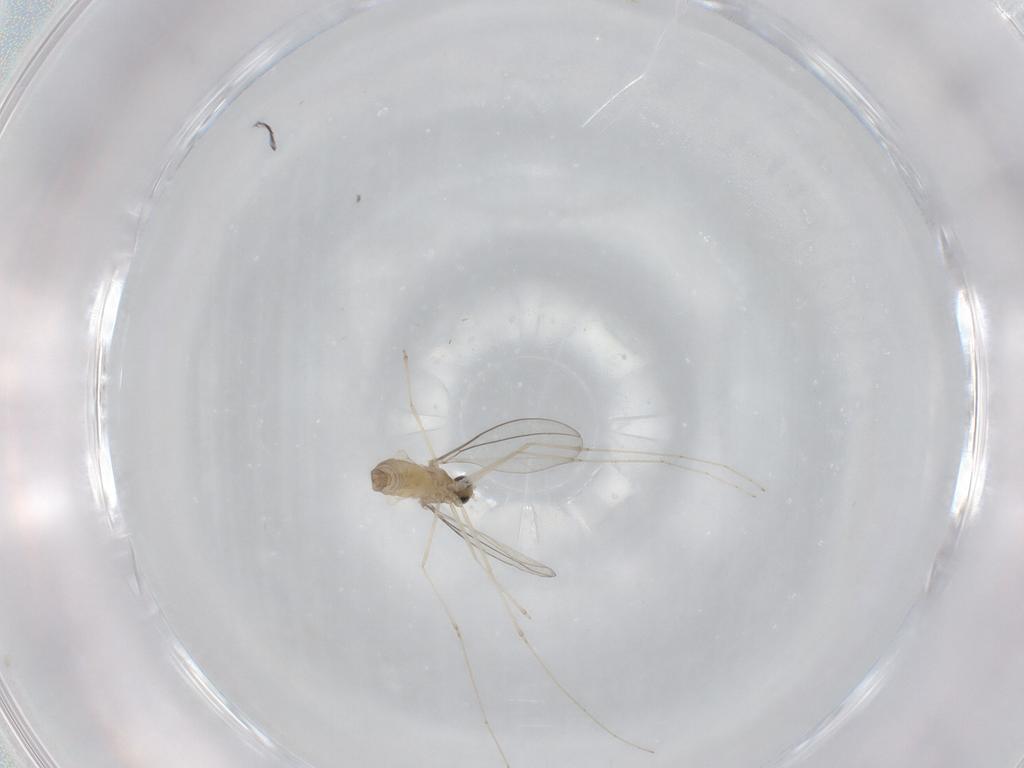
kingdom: Animalia
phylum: Arthropoda
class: Insecta
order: Diptera
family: Cecidomyiidae
